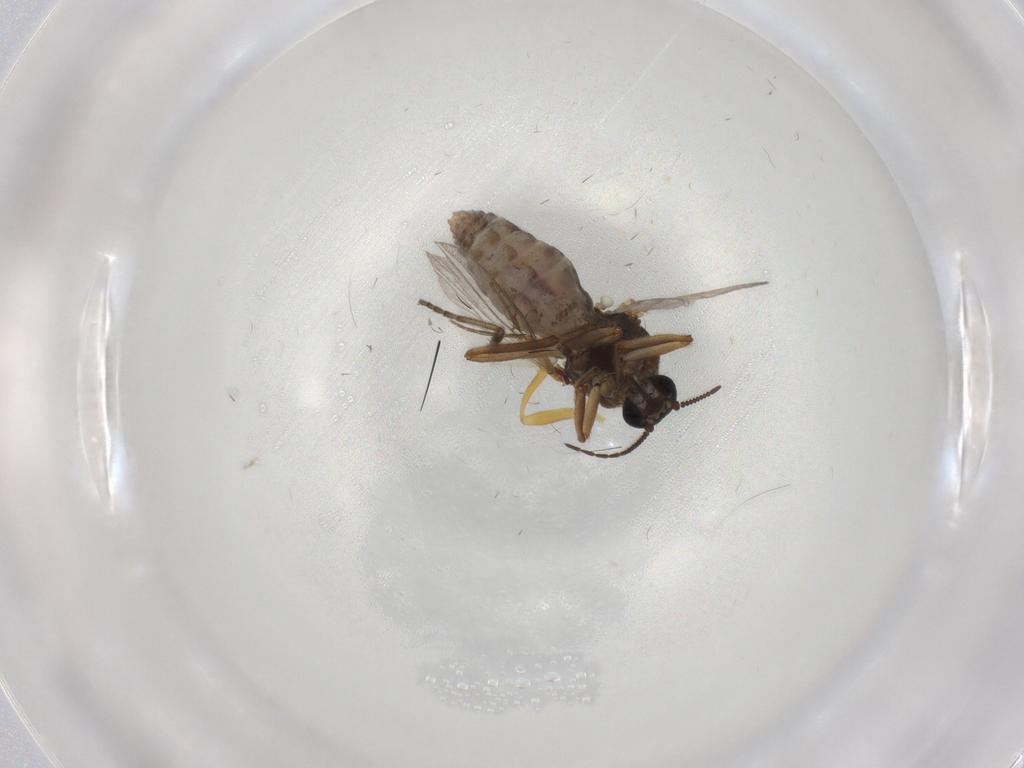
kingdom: Animalia
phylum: Arthropoda
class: Insecta
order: Diptera
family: Ceratopogonidae
